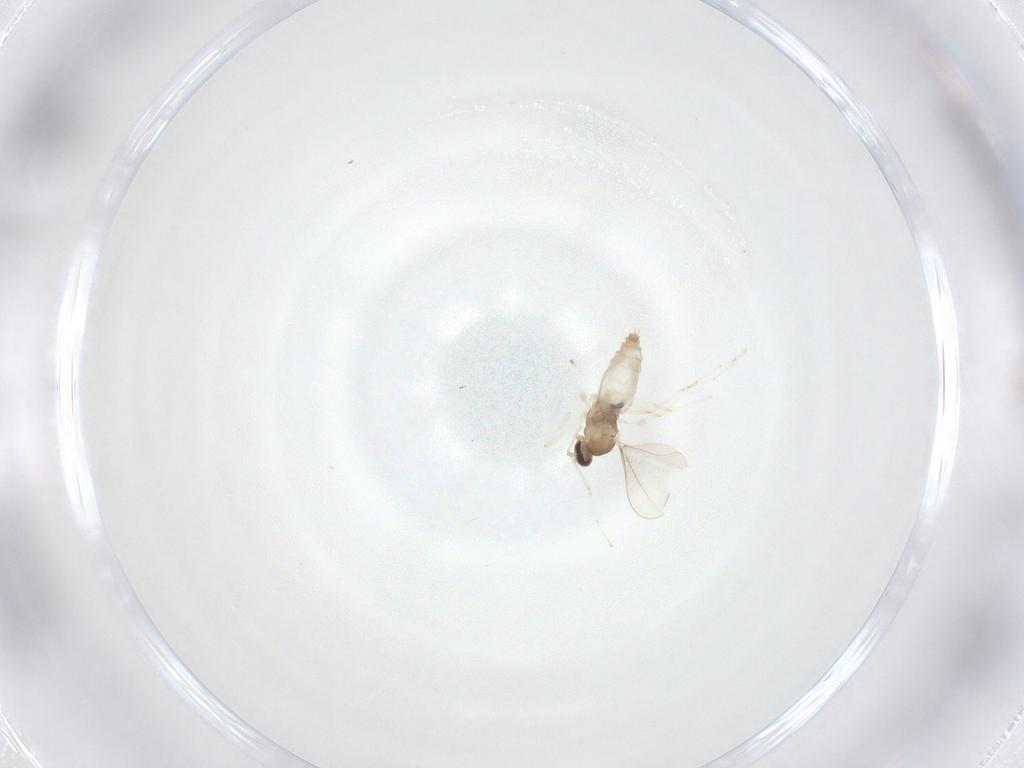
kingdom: Animalia
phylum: Arthropoda
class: Insecta
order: Diptera
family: Cecidomyiidae
